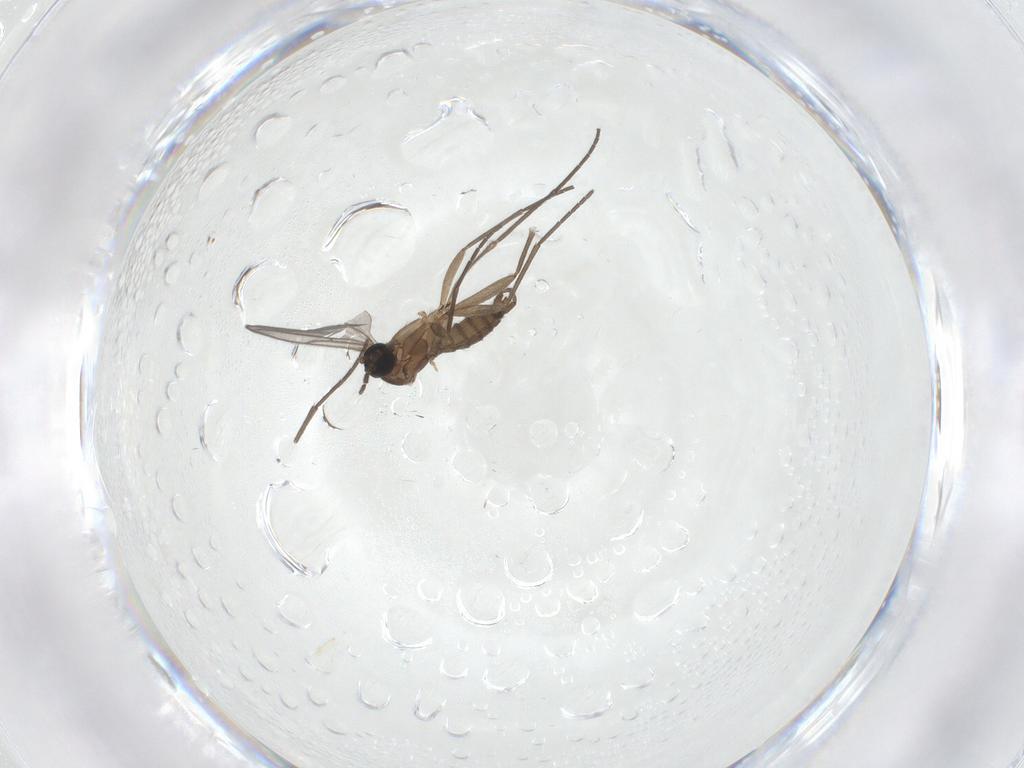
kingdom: Animalia
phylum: Arthropoda
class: Insecta
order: Diptera
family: Sciaridae
